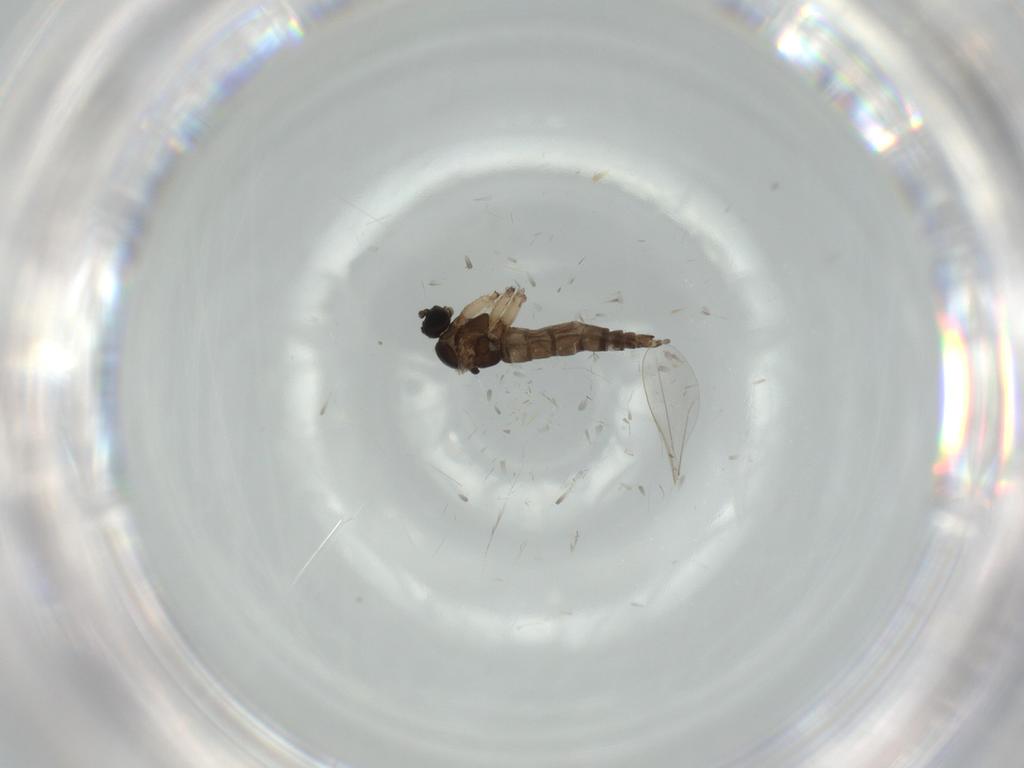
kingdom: Animalia
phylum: Arthropoda
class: Insecta
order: Diptera
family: Sciaridae
